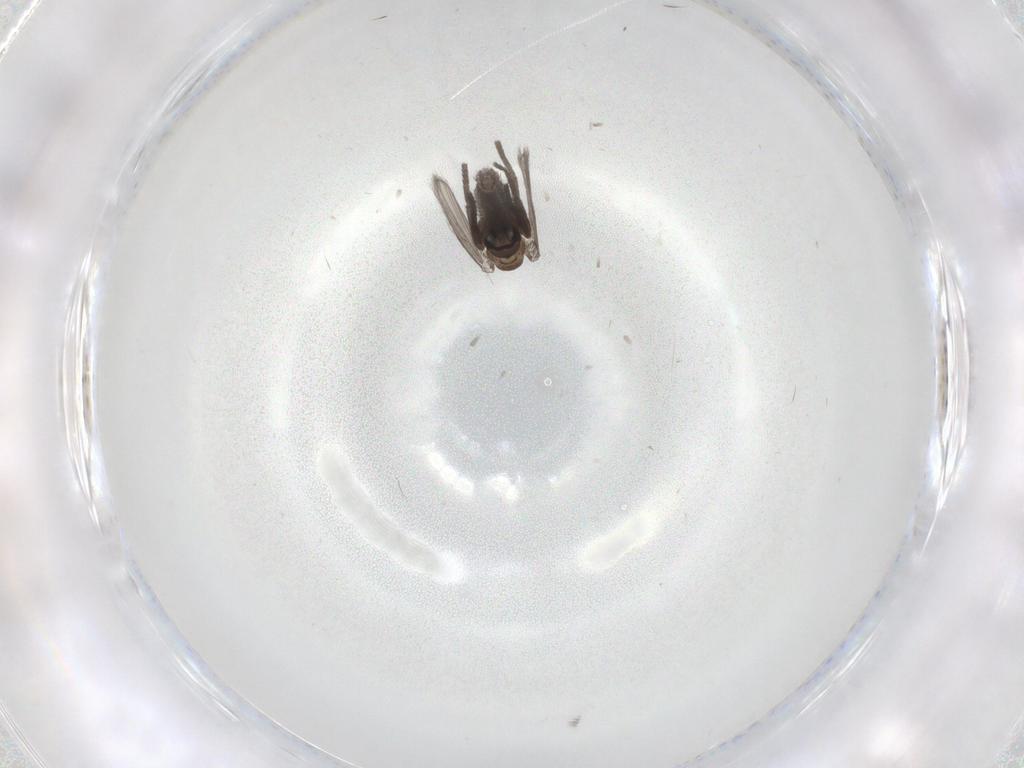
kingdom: Animalia
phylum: Arthropoda
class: Insecta
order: Diptera
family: Psychodidae
